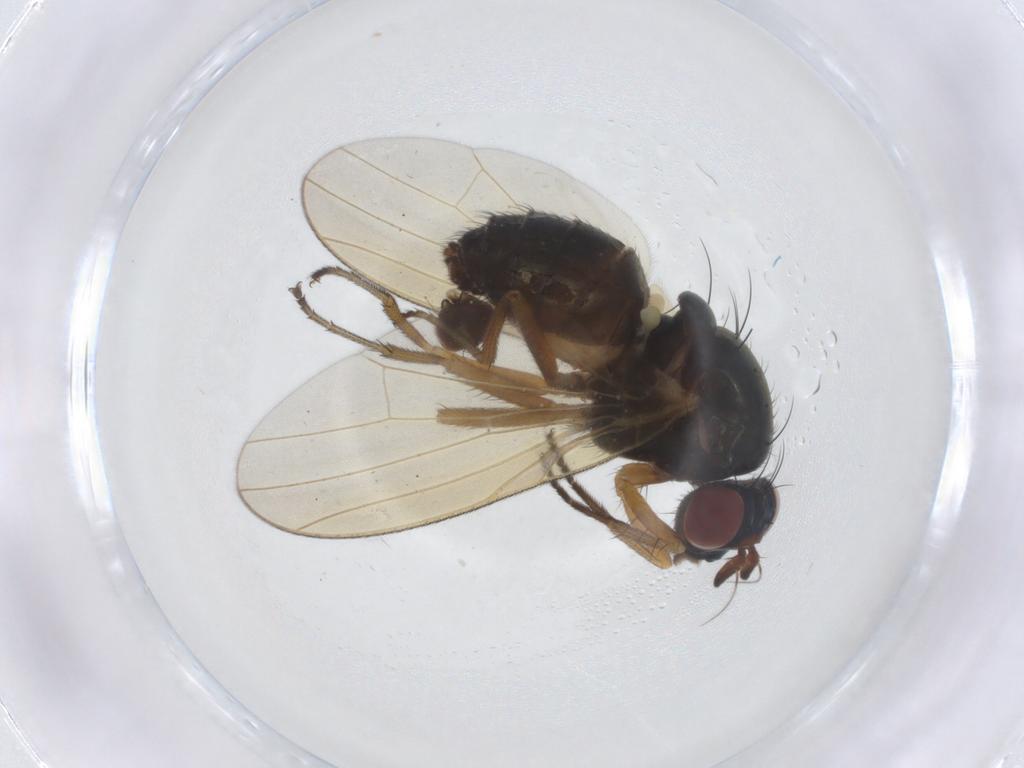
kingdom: Animalia
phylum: Arthropoda
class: Insecta
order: Diptera
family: Agromyzidae
